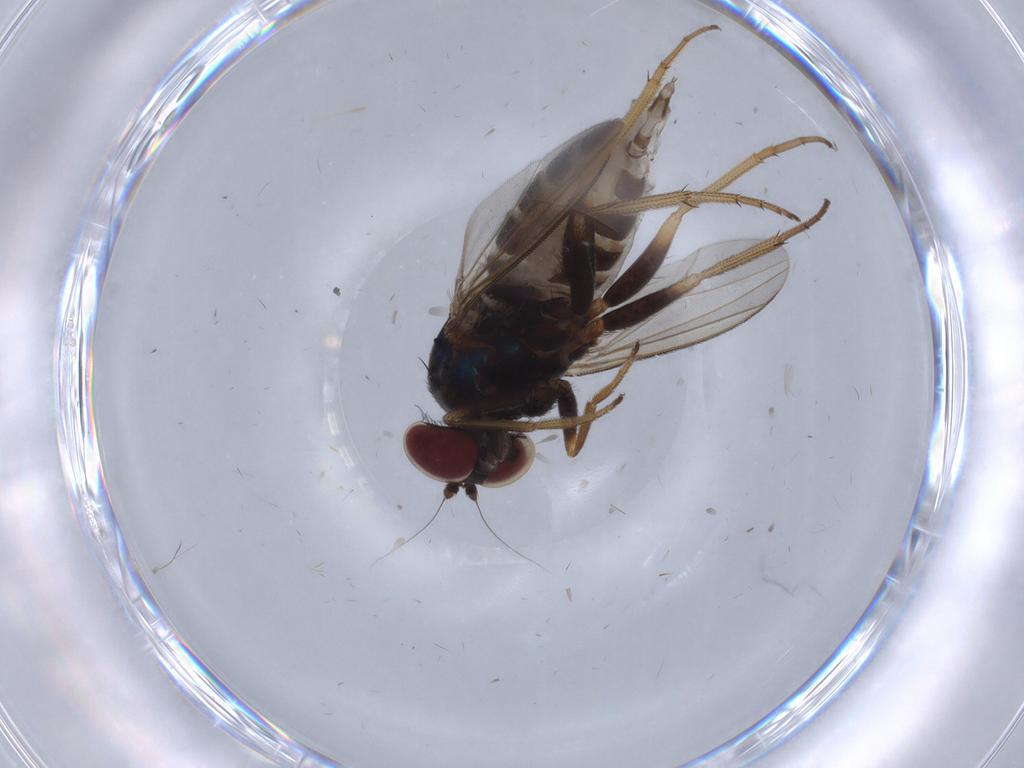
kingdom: Animalia
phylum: Arthropoda
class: Insecta
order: Diptera
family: Dolichopodidae
